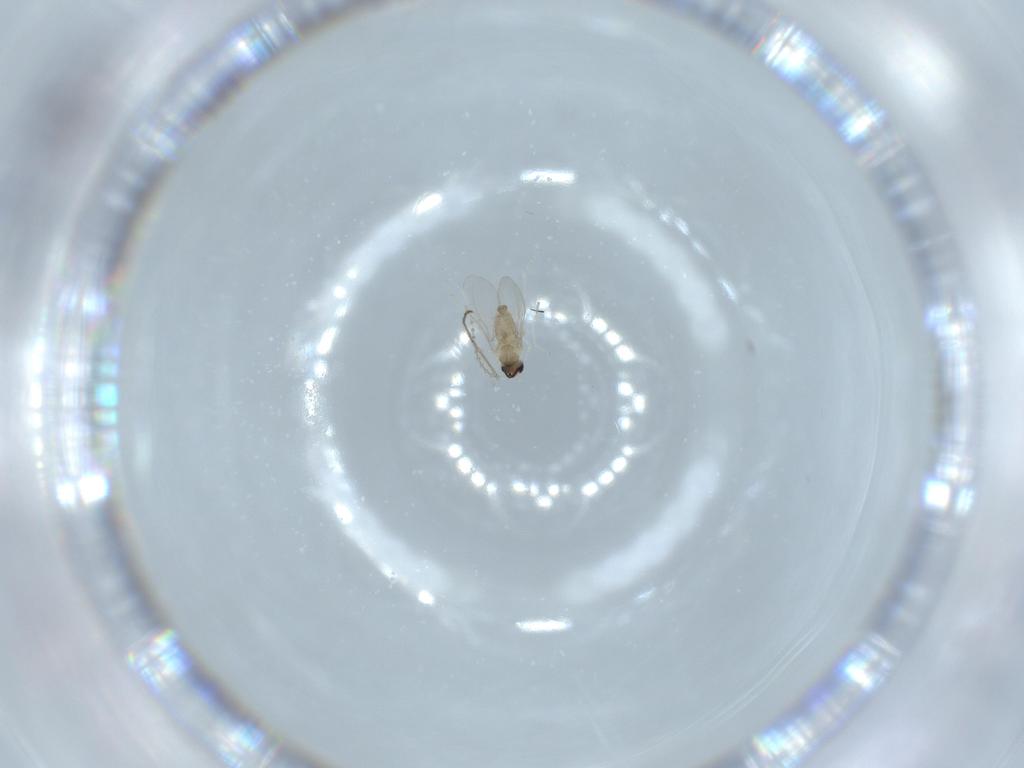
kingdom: Animalia
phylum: Arthropoda
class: Insecta
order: Diptera
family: Cecidomyiidae
